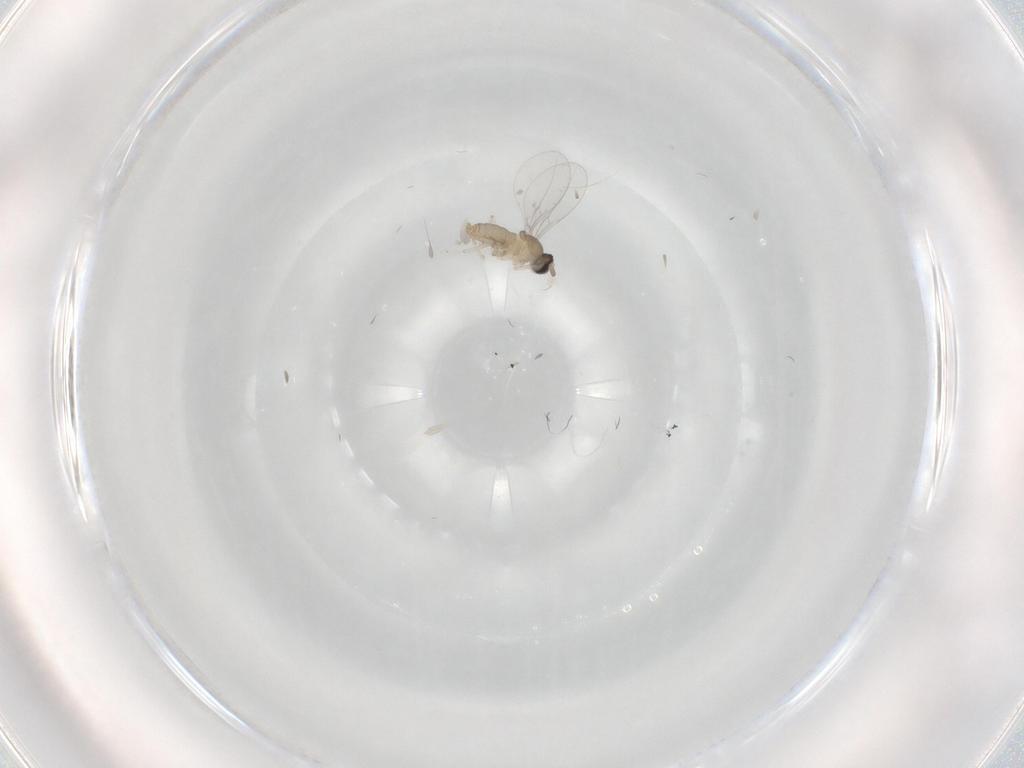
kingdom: Animalia
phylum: Arthropoda
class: Insecta
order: Diptera
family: Cecidomyiidae
